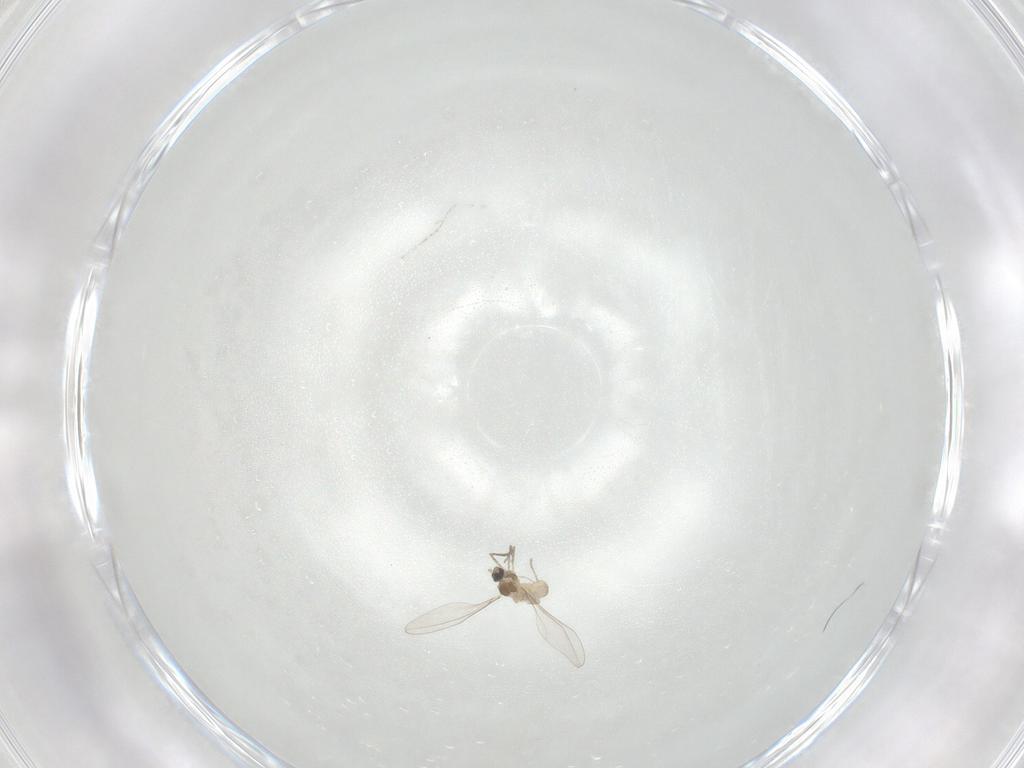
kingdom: Animalia
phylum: Arthropoda
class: Insecta
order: Diptera
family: Cecidomyiidae
